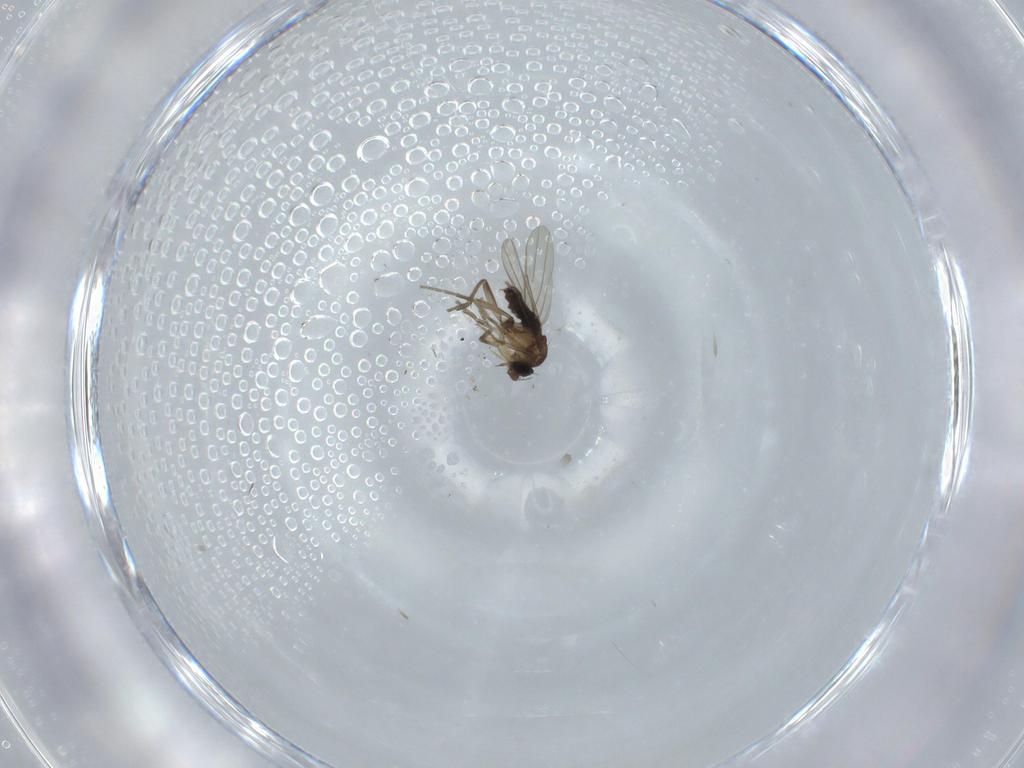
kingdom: Animalia
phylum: Arthropoda
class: Insecta
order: Diptera
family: Phoridae
